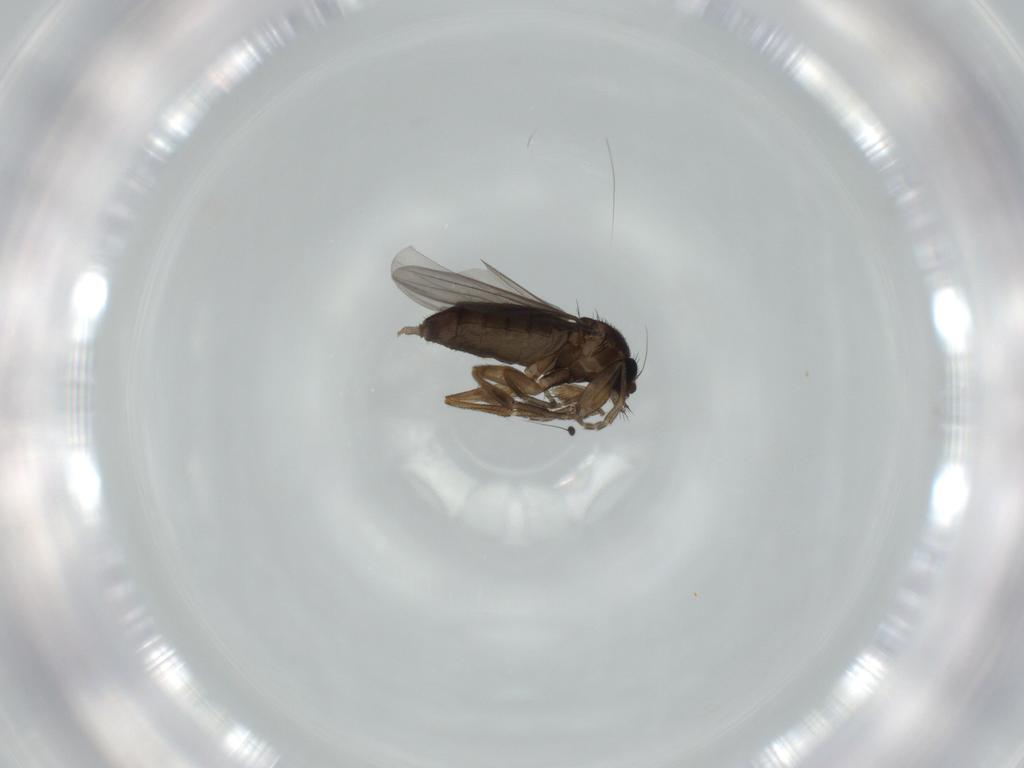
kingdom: Animalia
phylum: Arthropoda
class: Insecta
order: Diptera
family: Phoridae
